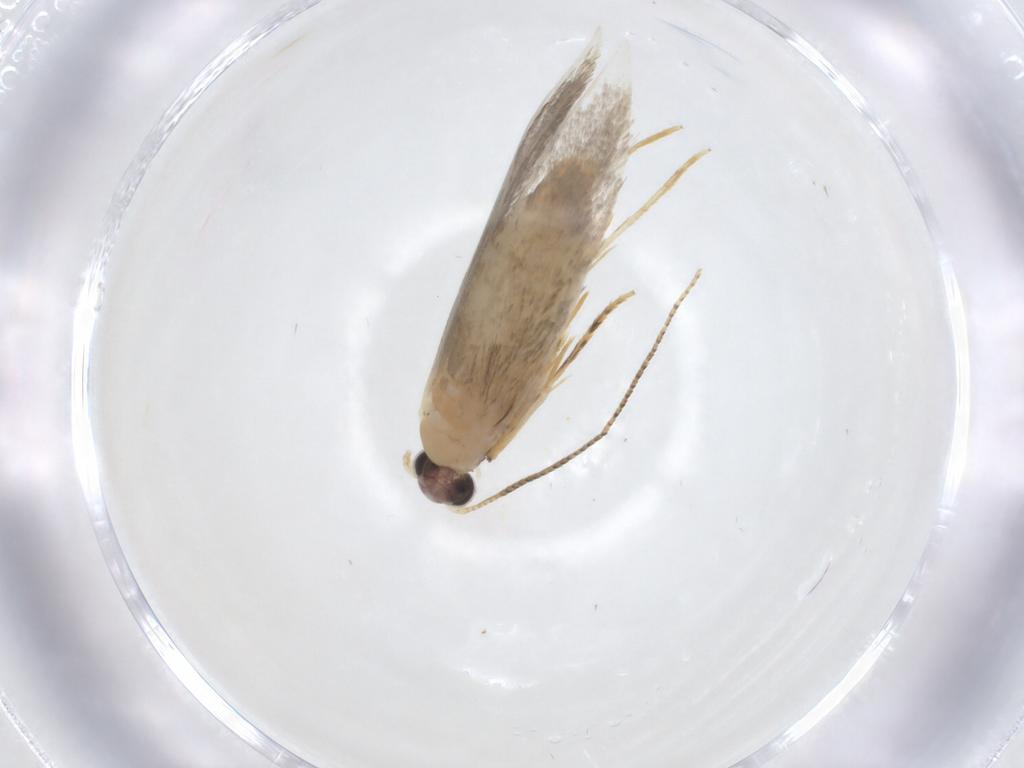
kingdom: Animalia
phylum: Arthropoda
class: Insecta
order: Lepidoptera
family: Tineidae
